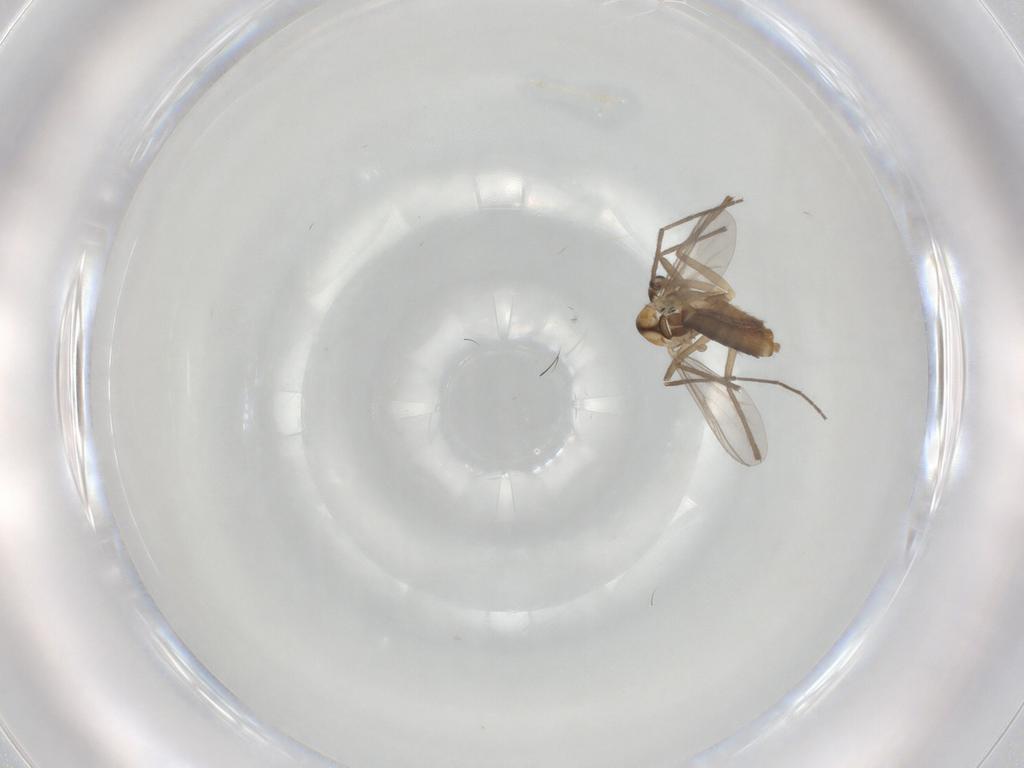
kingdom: Animalia
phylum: Arthropoda
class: Insecta
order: Diptera
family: Chironomidae
